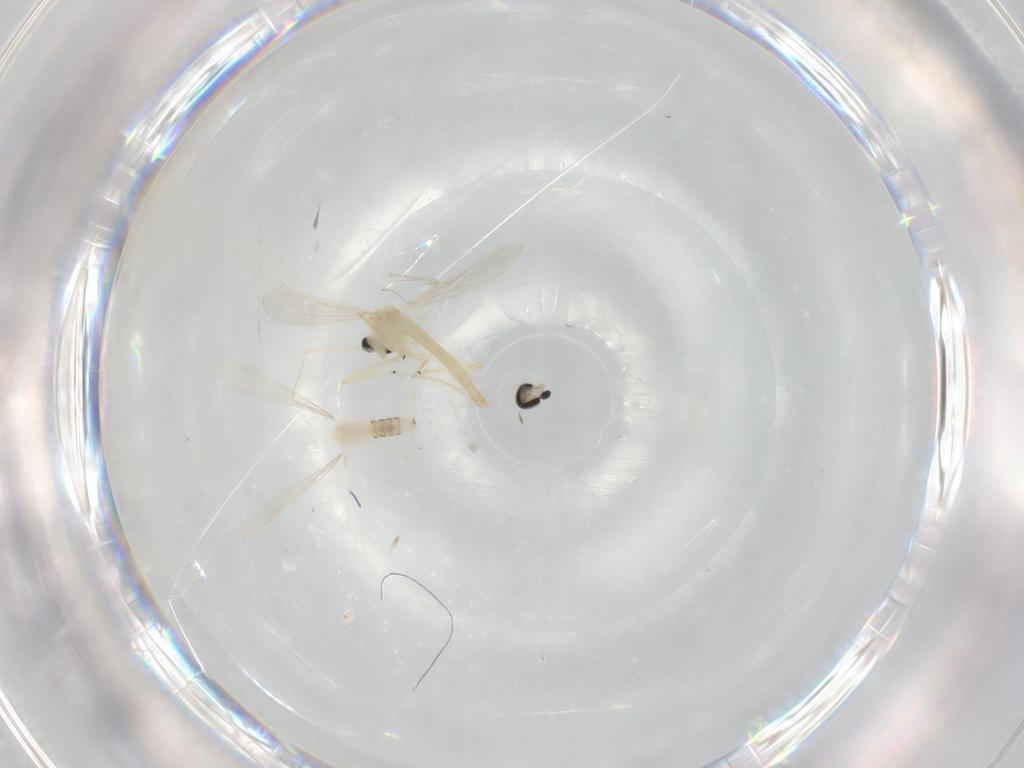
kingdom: Animalia
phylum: Arthropoda
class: Insecta
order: Diptera
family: Chironomidae
